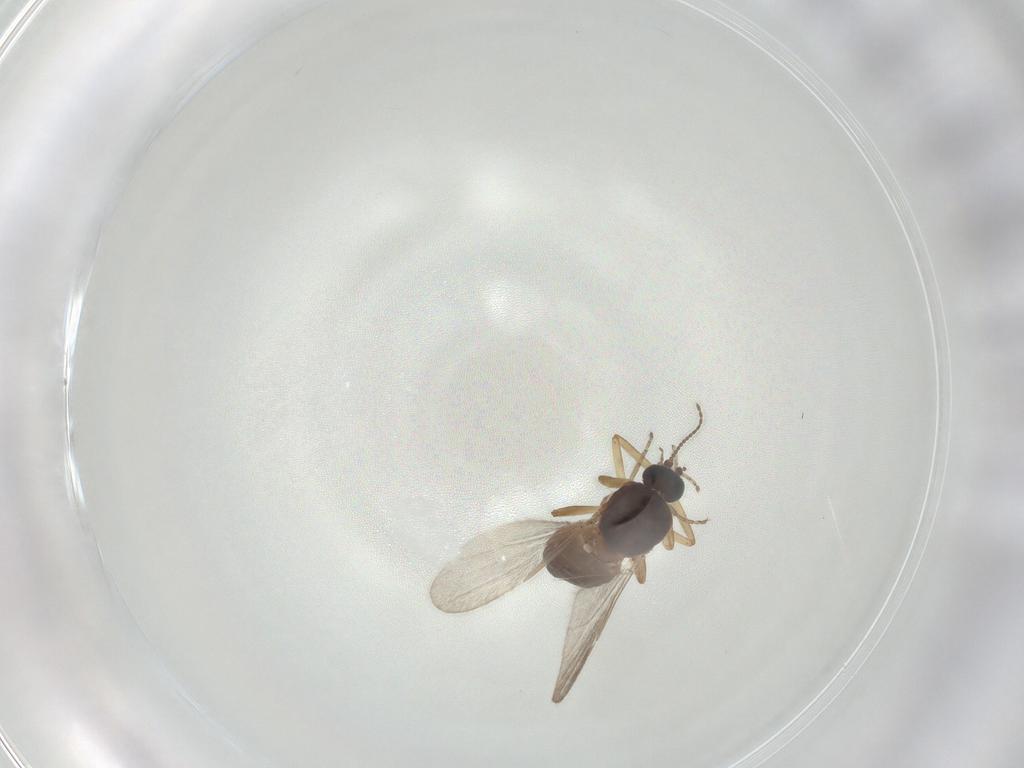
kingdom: Animalia
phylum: Arthropoda
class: Insecta
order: Diptera
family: Ceratopogonidae
